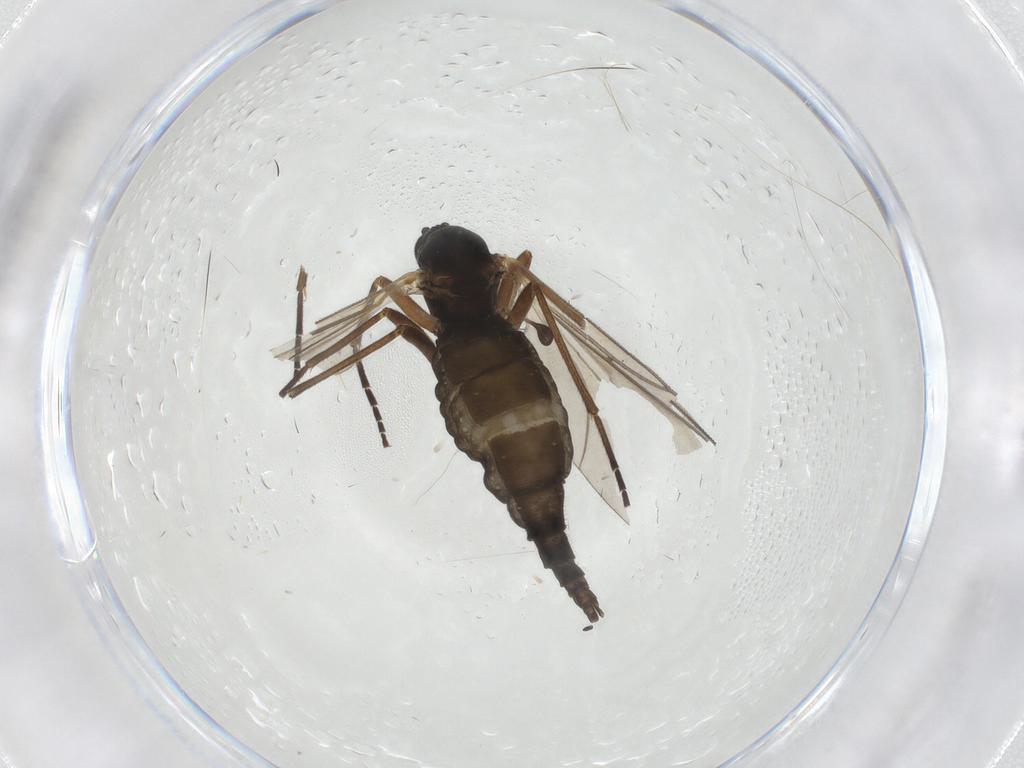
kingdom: Animalia
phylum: Arthropoda
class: Insecta
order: Diptera
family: Sciaridae
